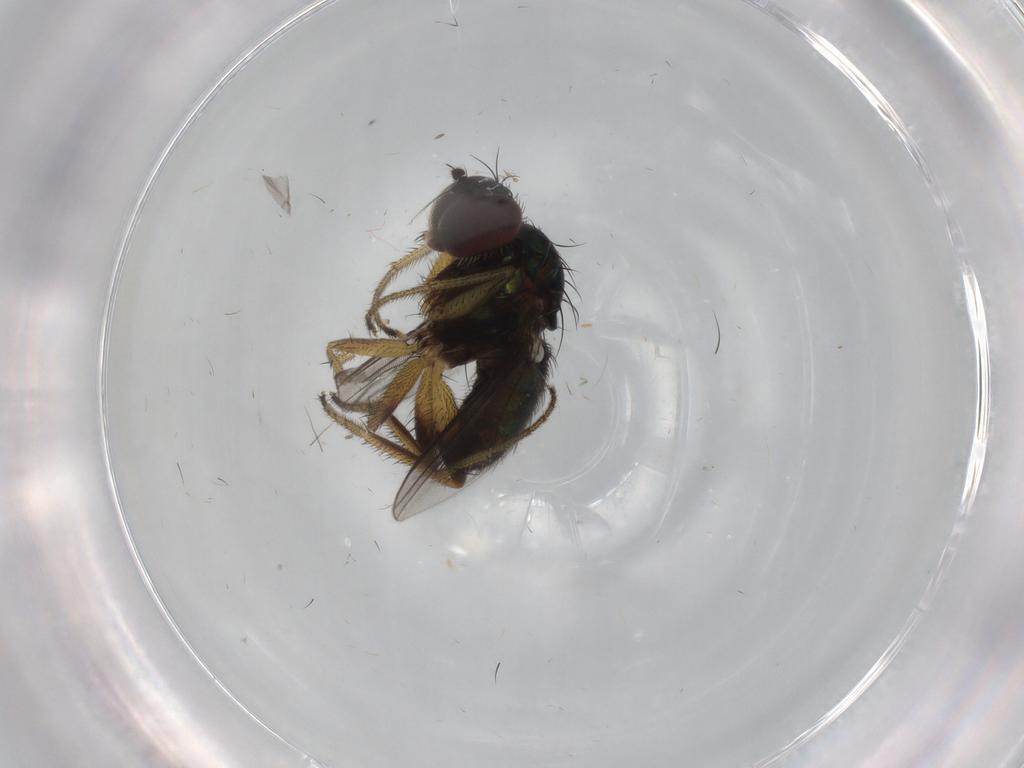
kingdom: Animalia
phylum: Arthropoda
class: Insecta
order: Diptera
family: Dolichopodidae
